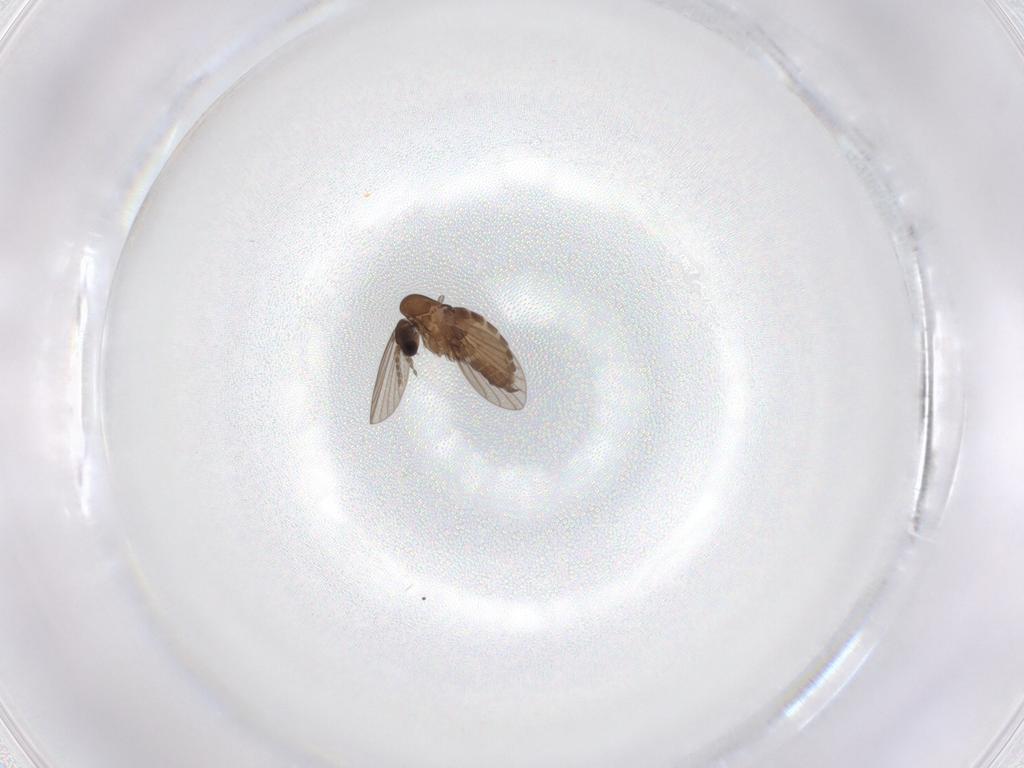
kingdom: Animalia
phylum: Arthropoda
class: Insecta
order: Diptera
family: Bibionidae
